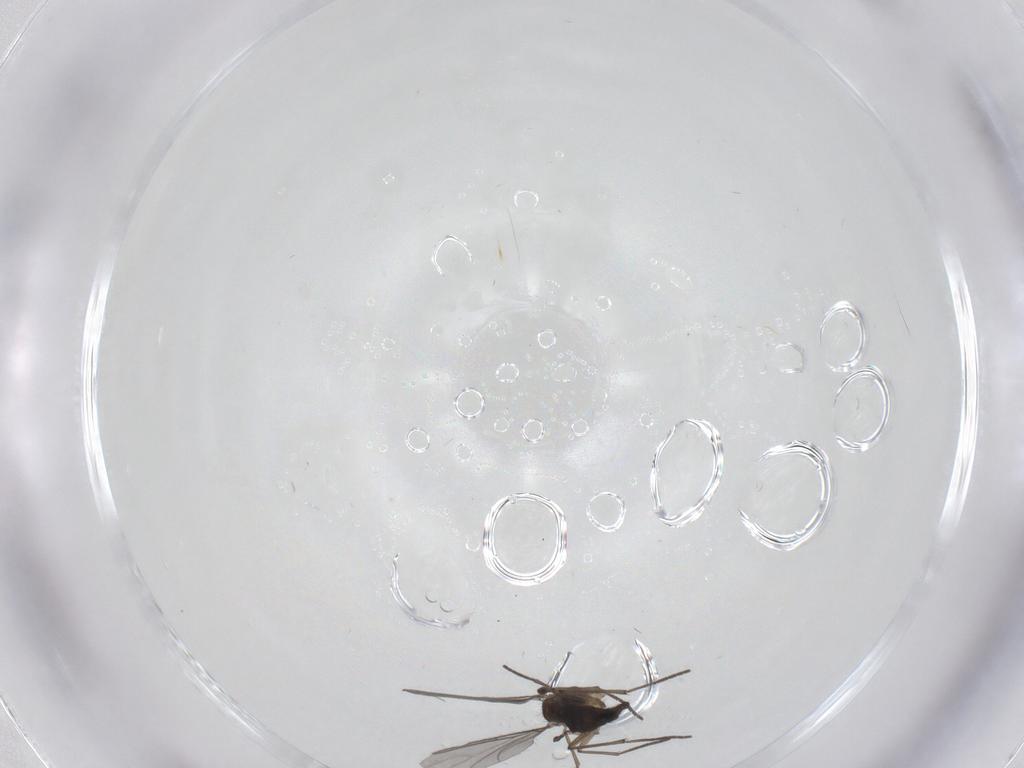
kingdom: Animalia
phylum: Arthropoda
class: Insecta
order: Diptera
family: Sciaridae
